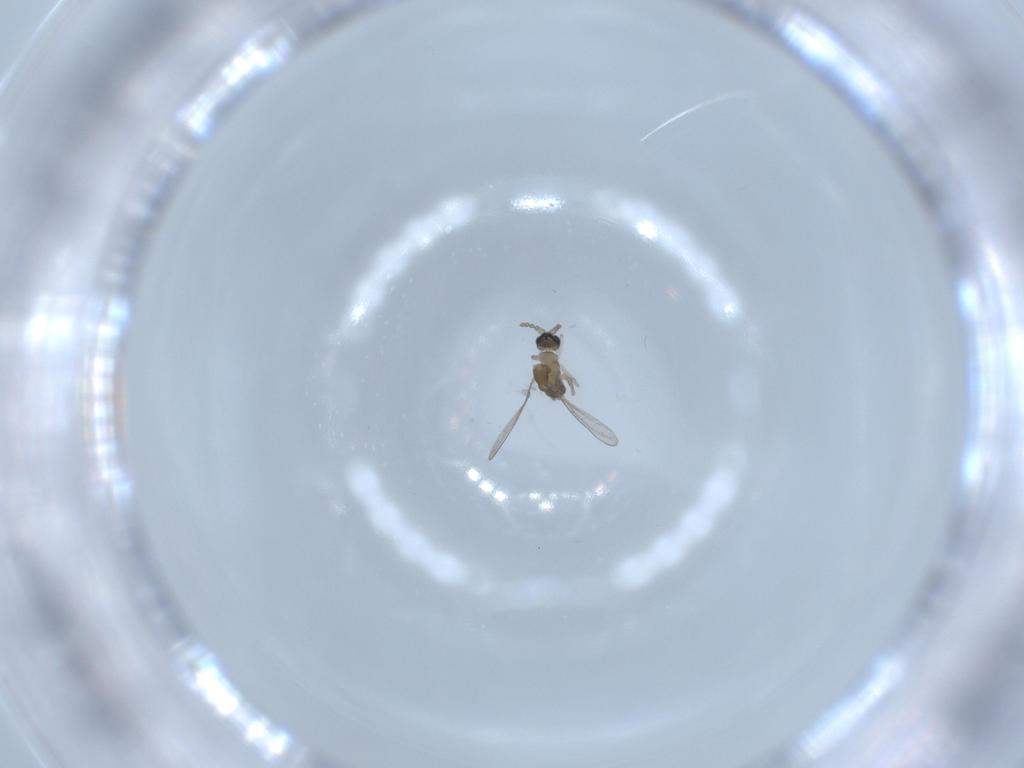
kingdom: Animalia
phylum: Arthropoda
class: Insecta
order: Diptera
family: Cecidomyiidae
